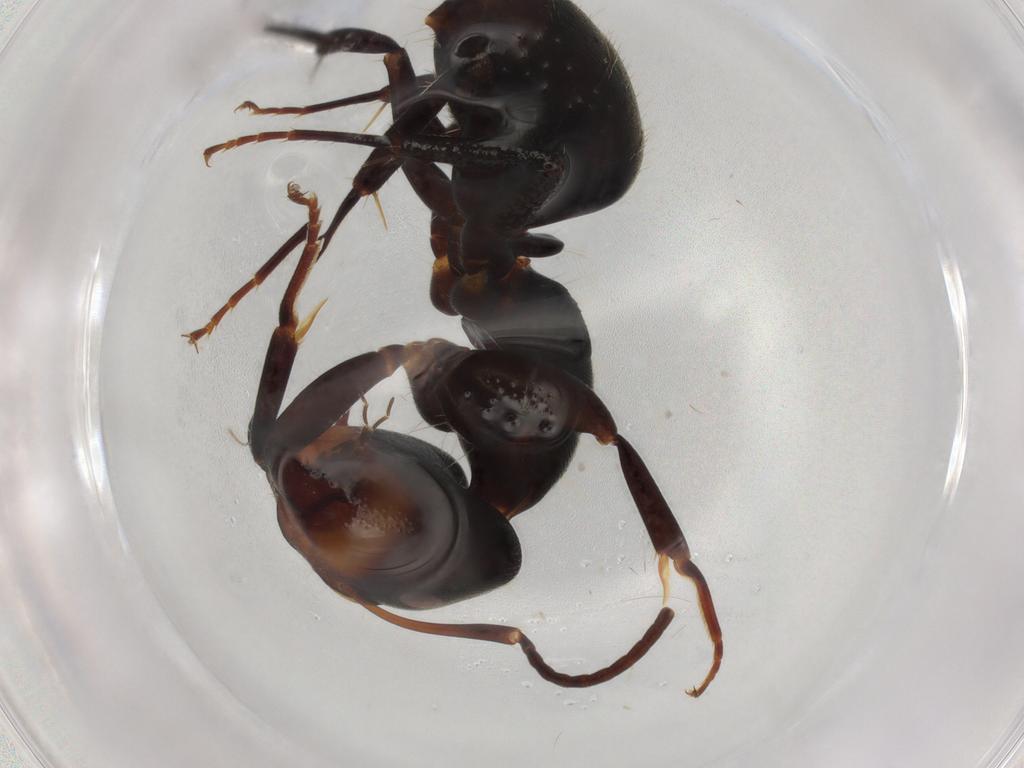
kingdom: Animalia
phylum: Arthropoda
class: Insecta
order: Hymenoptera
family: Formicidae
